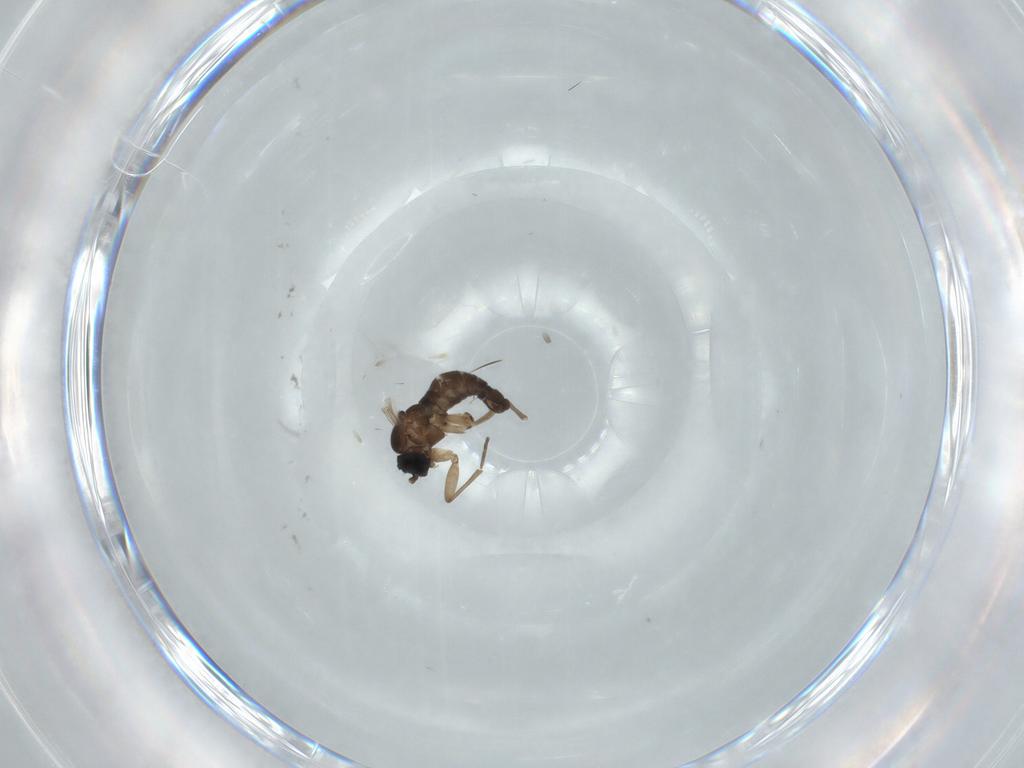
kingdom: Animalia
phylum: Arthropoda
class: Insecta
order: Diptera
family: Sciaridae
